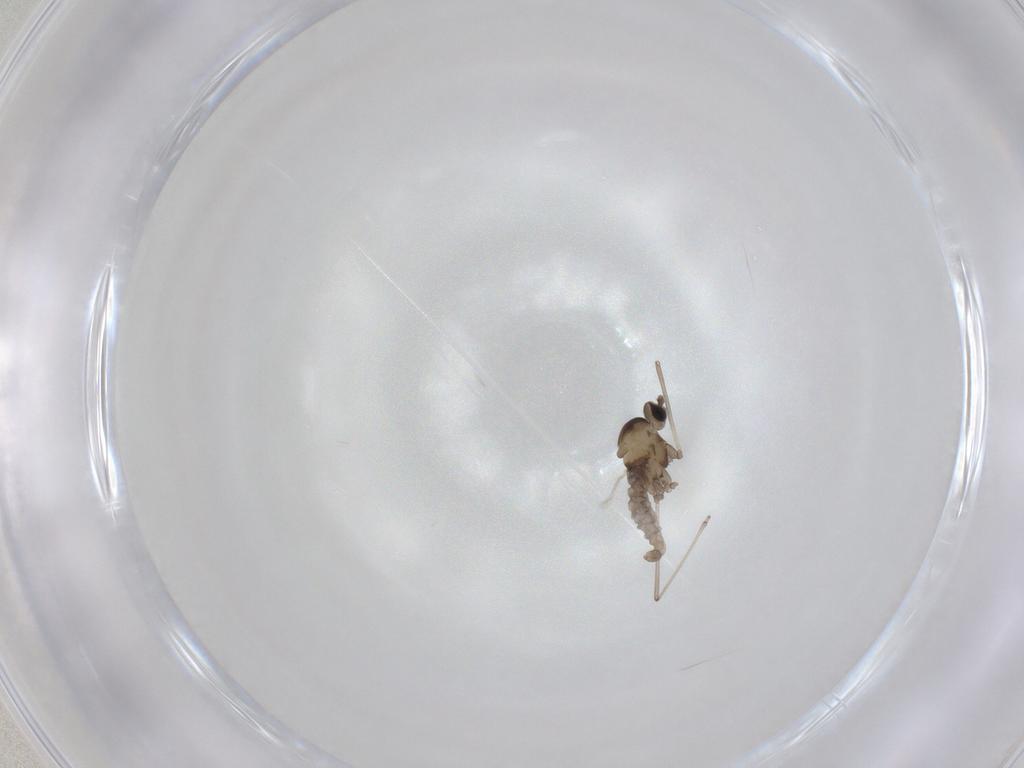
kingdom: Animalia
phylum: Arthropoda
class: Insecta
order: Diptera
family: Cecidomyiidae
